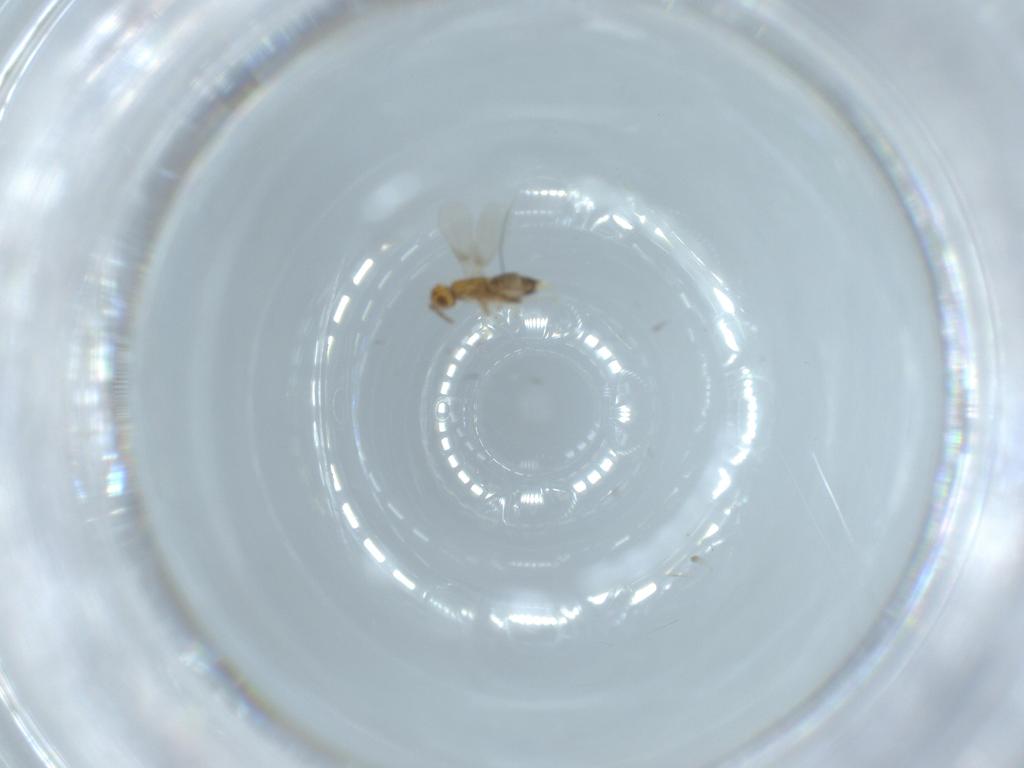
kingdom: Animalia
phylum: Arthropoda
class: Insecta
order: Hymenoptera
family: Aphelinidae
